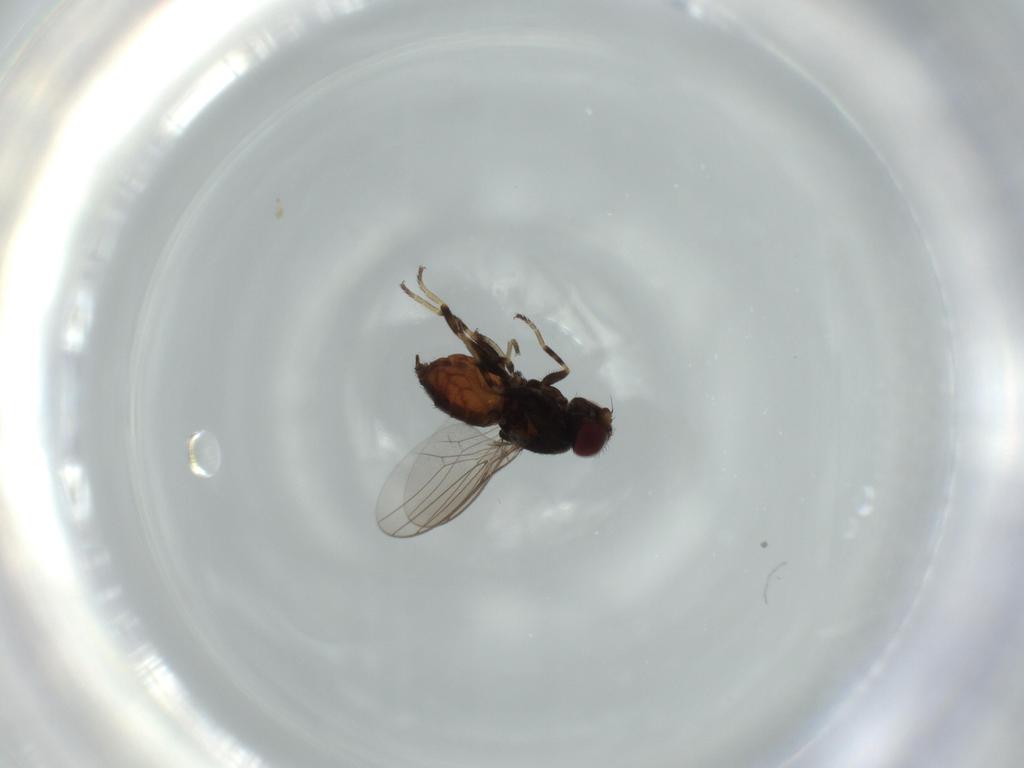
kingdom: Animalia
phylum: Arthropoda
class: Insecta
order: Diptera
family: Chloropidae
